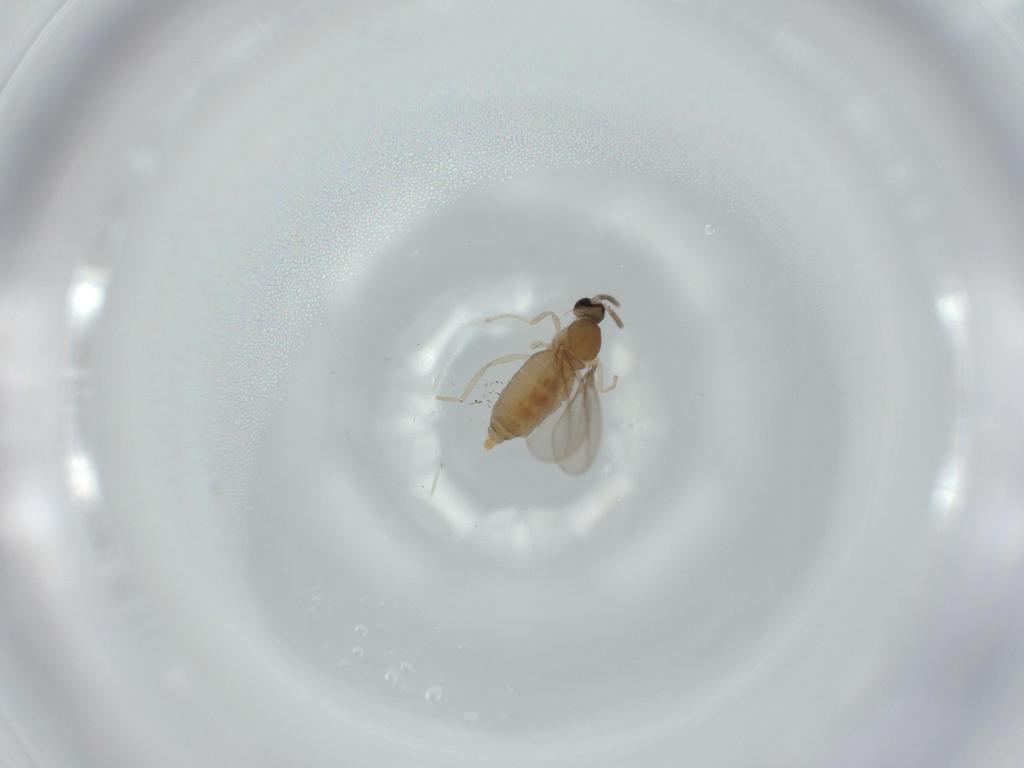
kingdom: Animalia
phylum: Arthropoda
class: Insecta
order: Diptera
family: Cecidomyiidae
